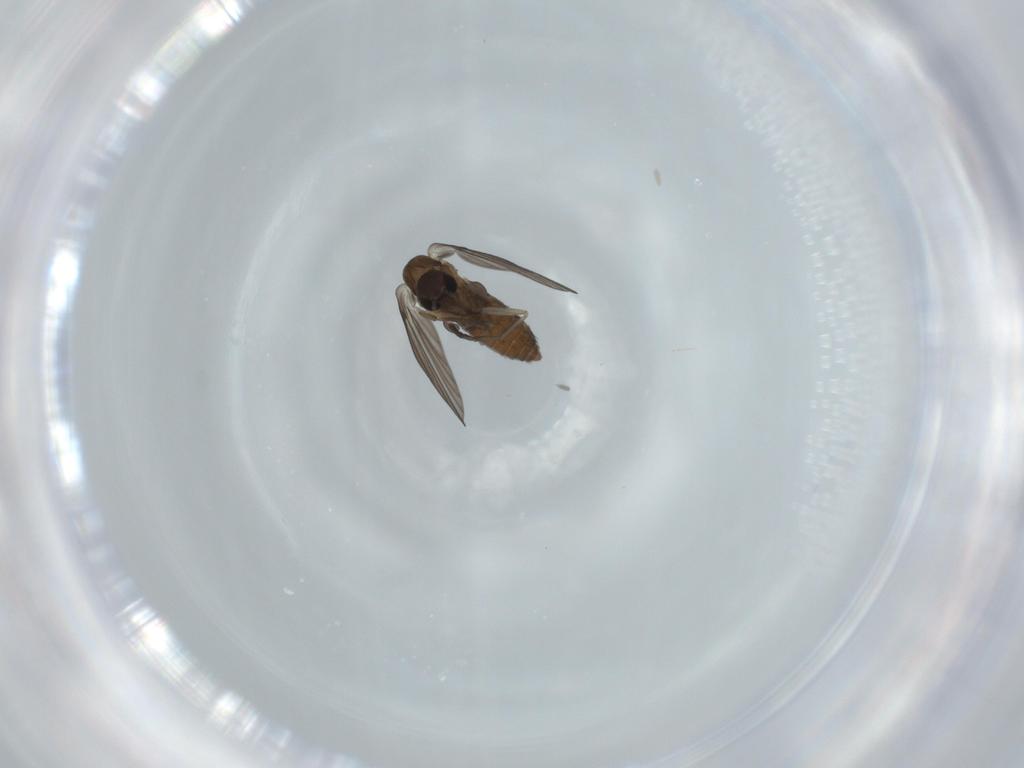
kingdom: Animalia
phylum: Arthropoda
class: Insecta
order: Diptera
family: Psychodidae
